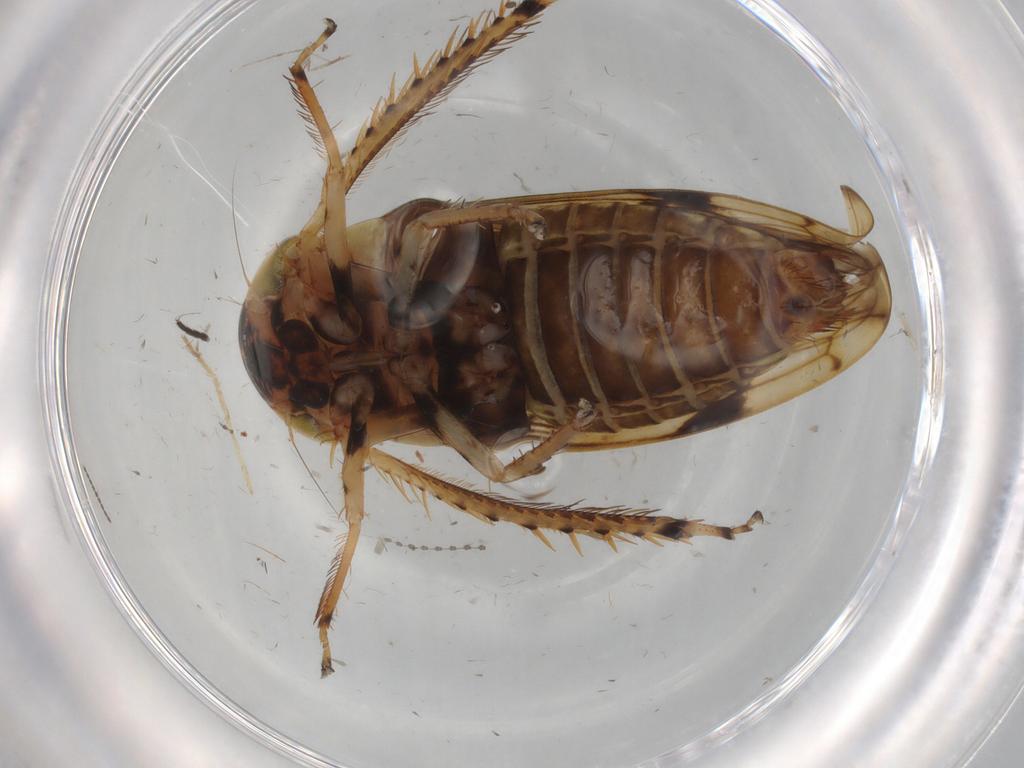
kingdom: Animalia
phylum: Arthropoda
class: Insecta
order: Hemiptera
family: Cicadellidae
